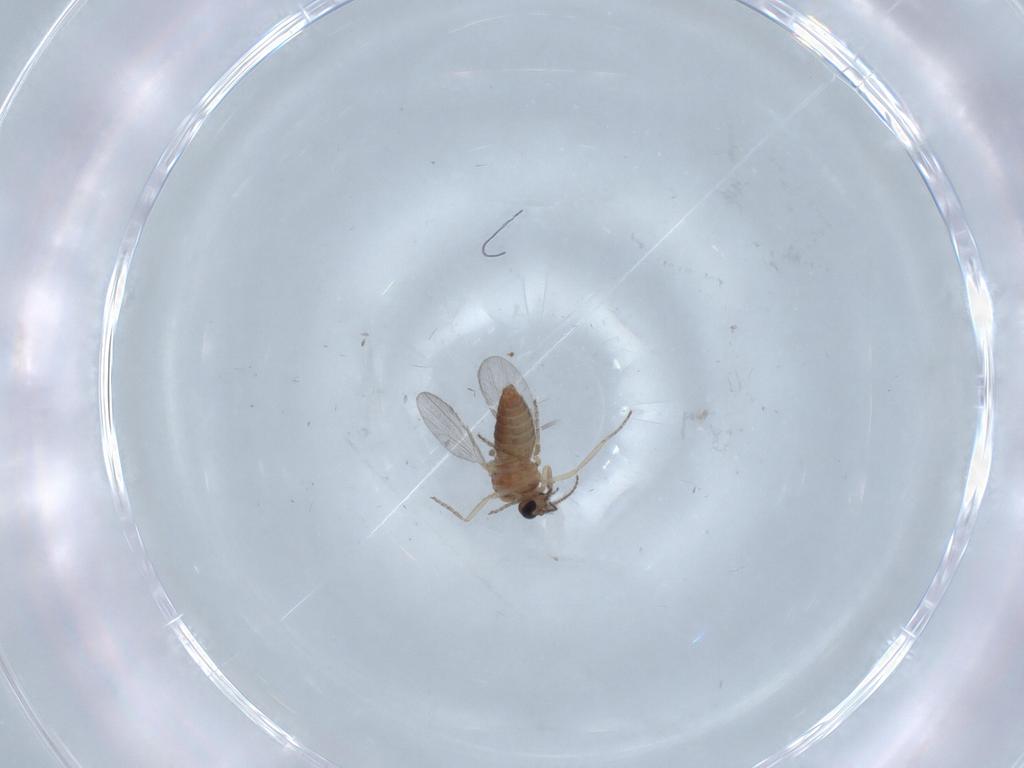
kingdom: Animalia
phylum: Arthropoda
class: Insecta
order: Diptera
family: Ceratopogonidae
